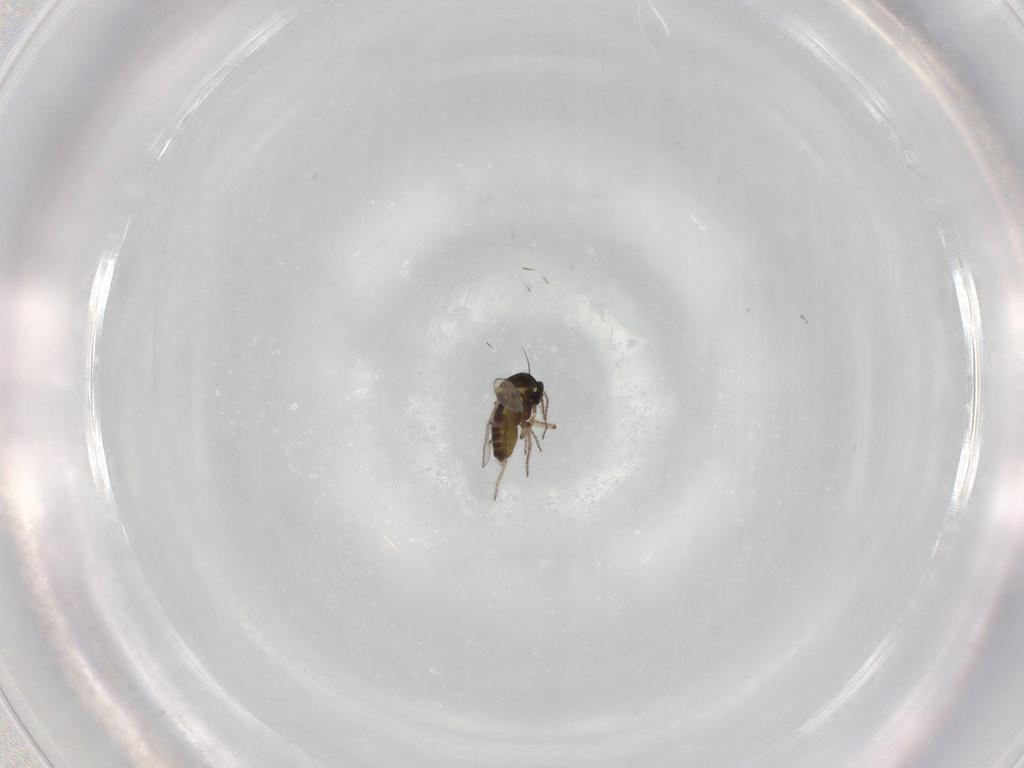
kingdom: Animalia
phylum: Arthropoda
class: Insecta
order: Diptera
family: Ceratopogonidae
